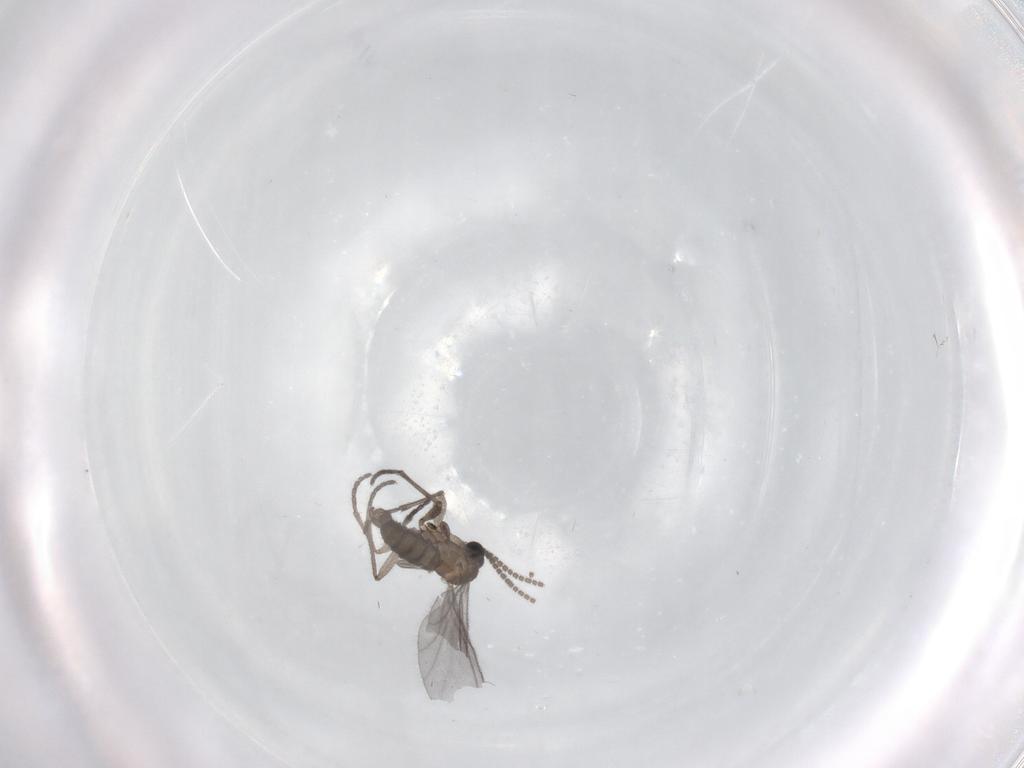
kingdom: Animalia
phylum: Arthropoda
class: Insecta
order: Diptera
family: Sciaridae
